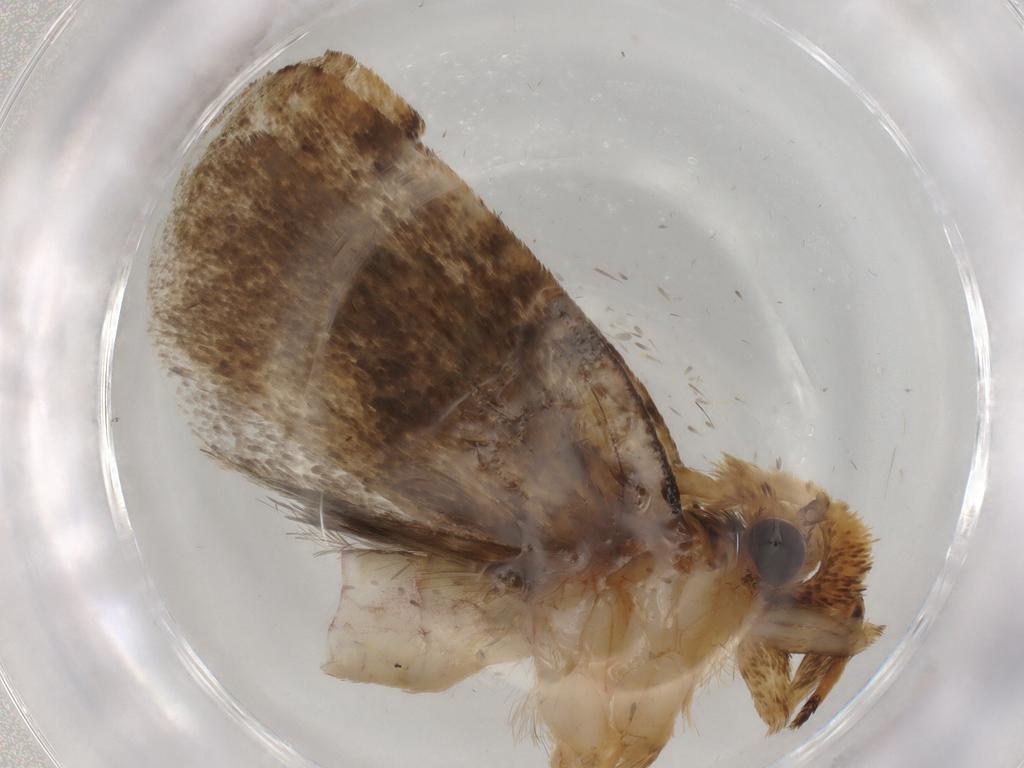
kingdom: Animalia
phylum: Arthropoda
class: Insecta
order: Lepidoptera
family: Tineidae
